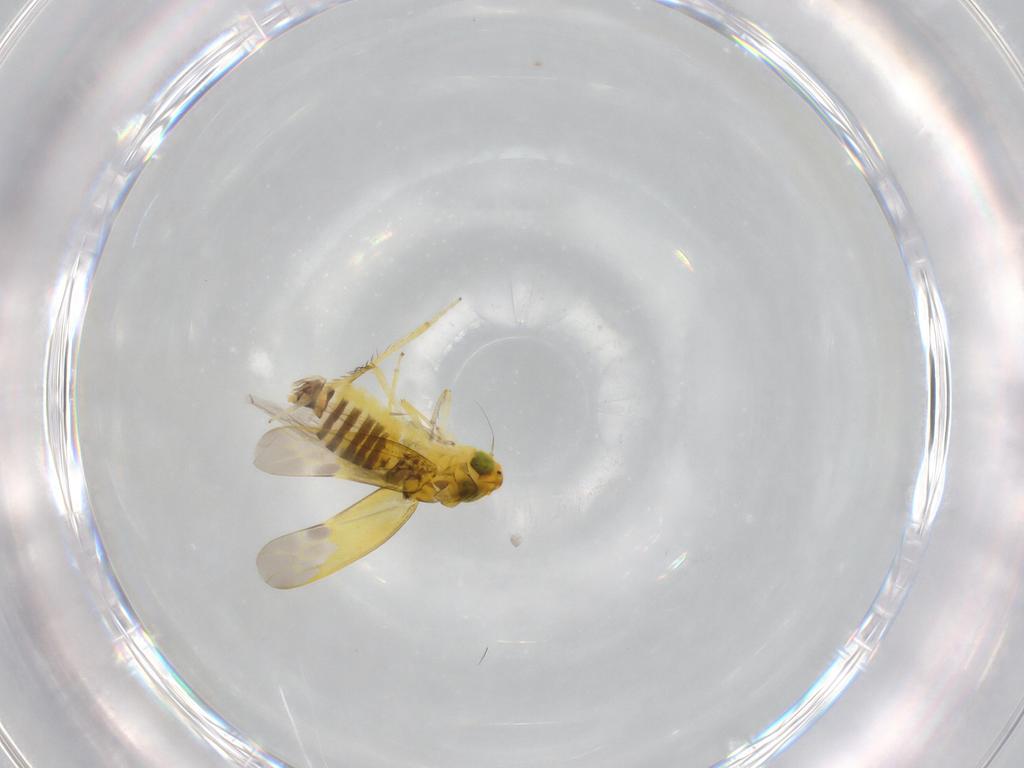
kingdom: Animalia
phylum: Arthropoda
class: Insecta
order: Hemiptera
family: Cicadellidae
